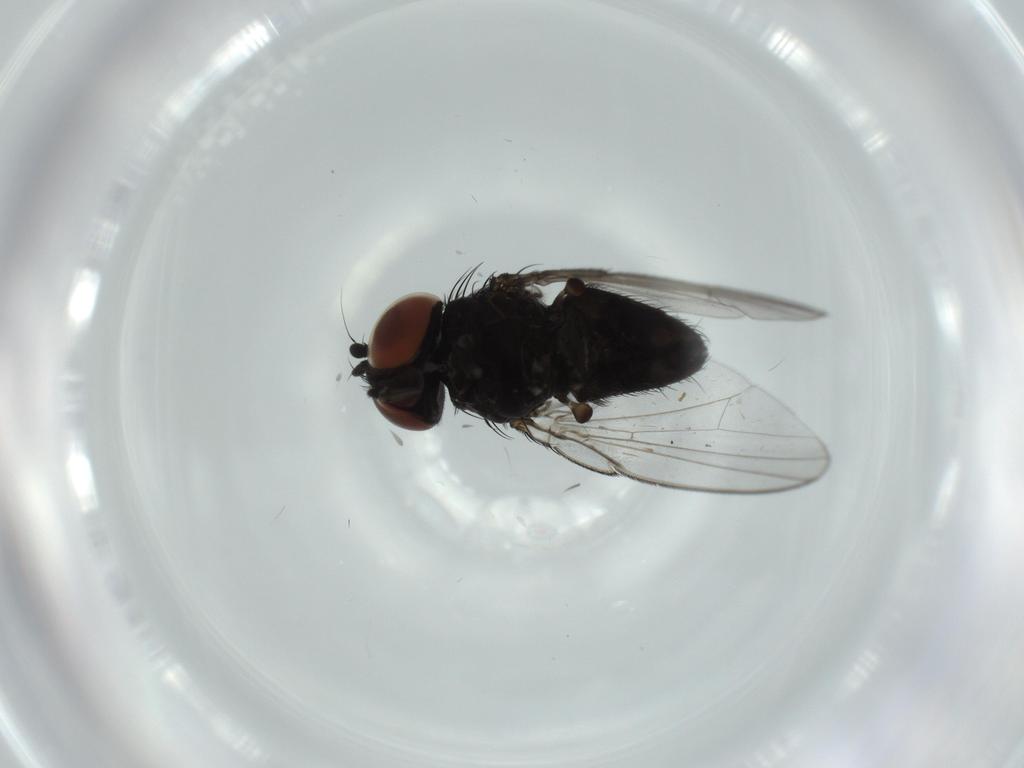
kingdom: Animalia
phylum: Arthropoda
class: Insecta
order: Diptera
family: Milichiidae
